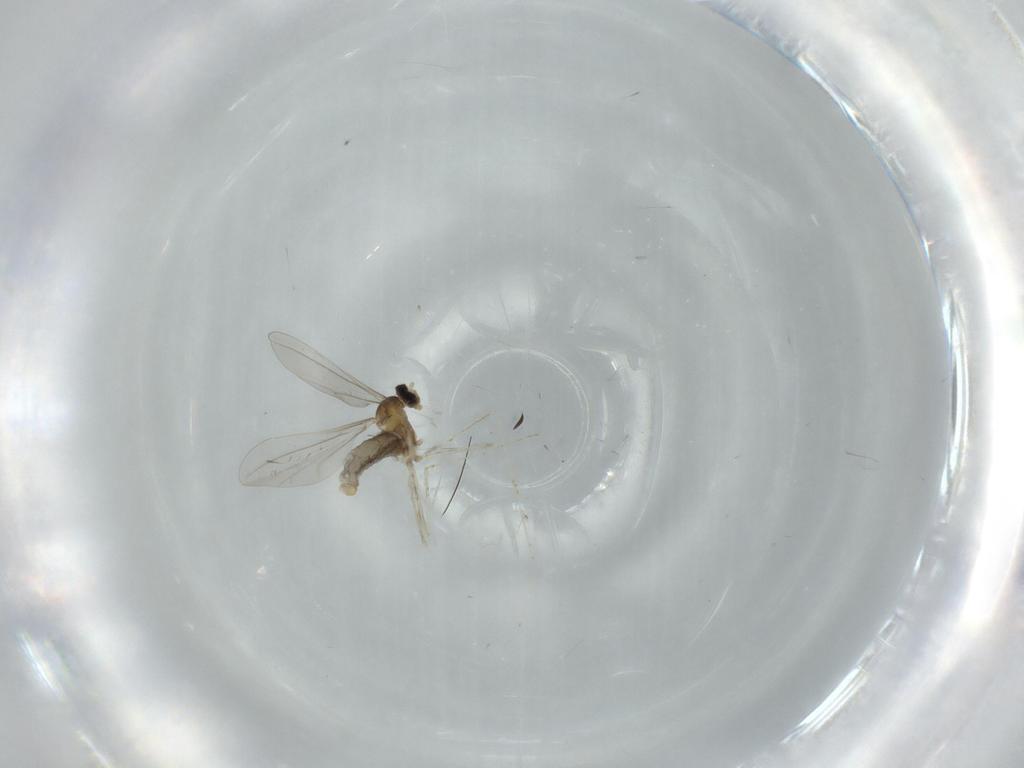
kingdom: Animalia
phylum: Arthropoda
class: Insecta
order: Diptera
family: Cecidomyiidae
